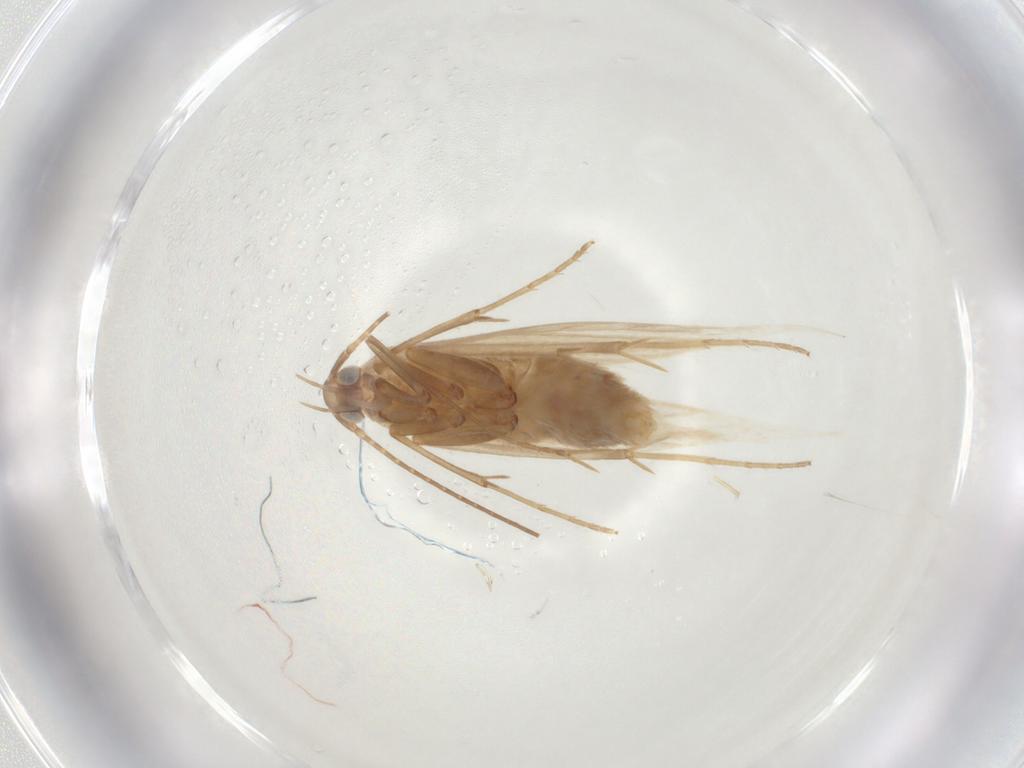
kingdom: Animalia
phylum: Arthropoda
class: Insecta
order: Lepidoptera
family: Coleophoridae
